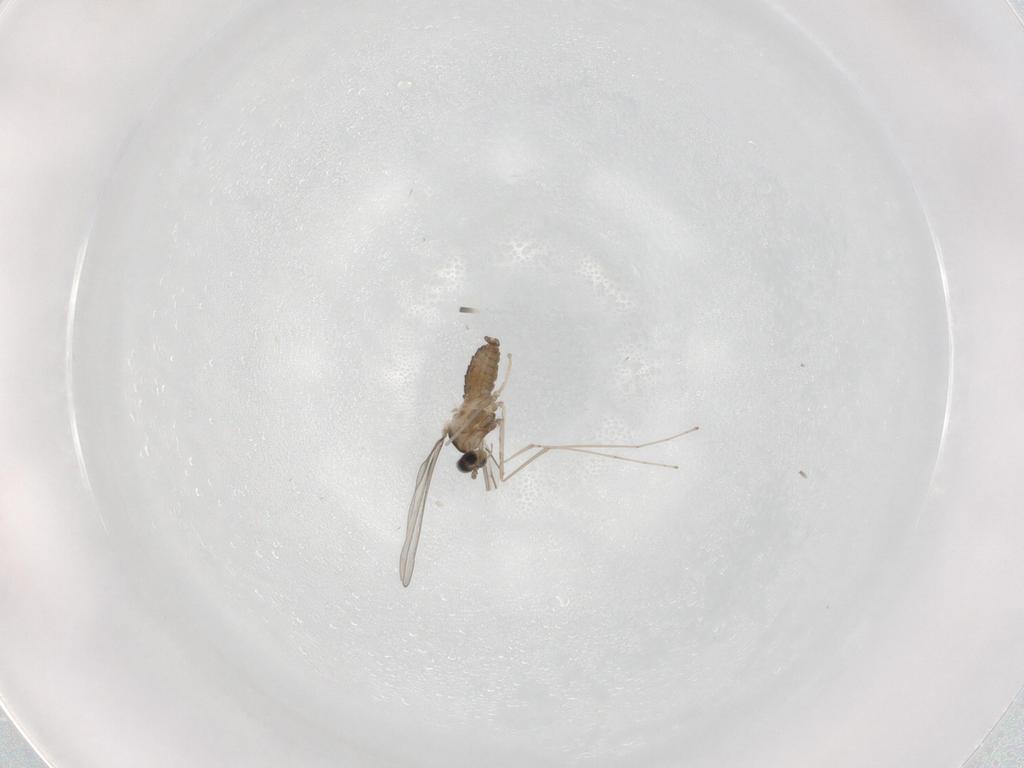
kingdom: Animalia
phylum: Arthropoda
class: Insecta
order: Diptera
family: Cecidomyiidae
